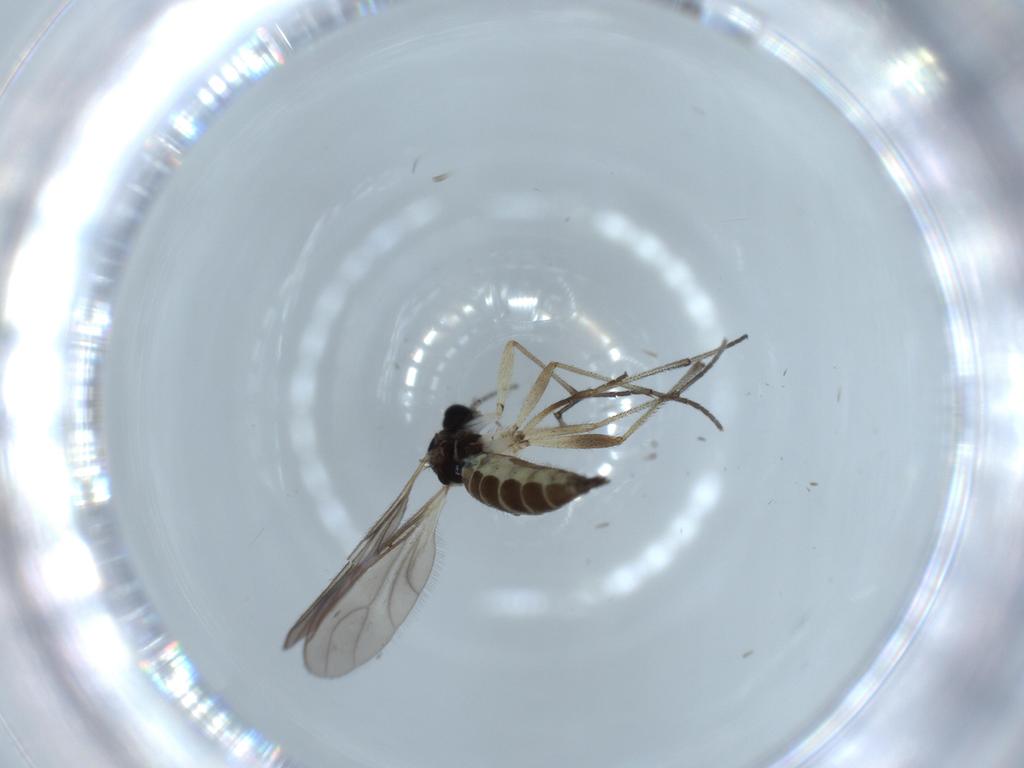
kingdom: Animalia
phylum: Arthropoda
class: Insecta
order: Diptera
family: Sciaridae
